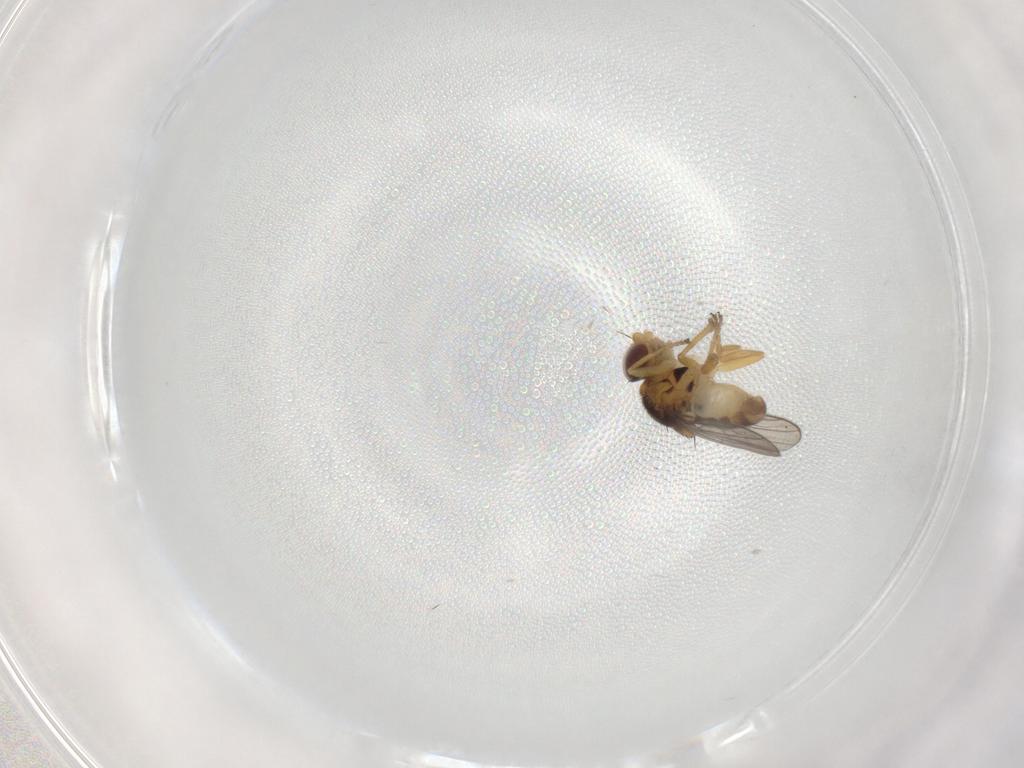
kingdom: Animalia
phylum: Arthropoda
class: Insecta
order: Diptera
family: Chloropidae
